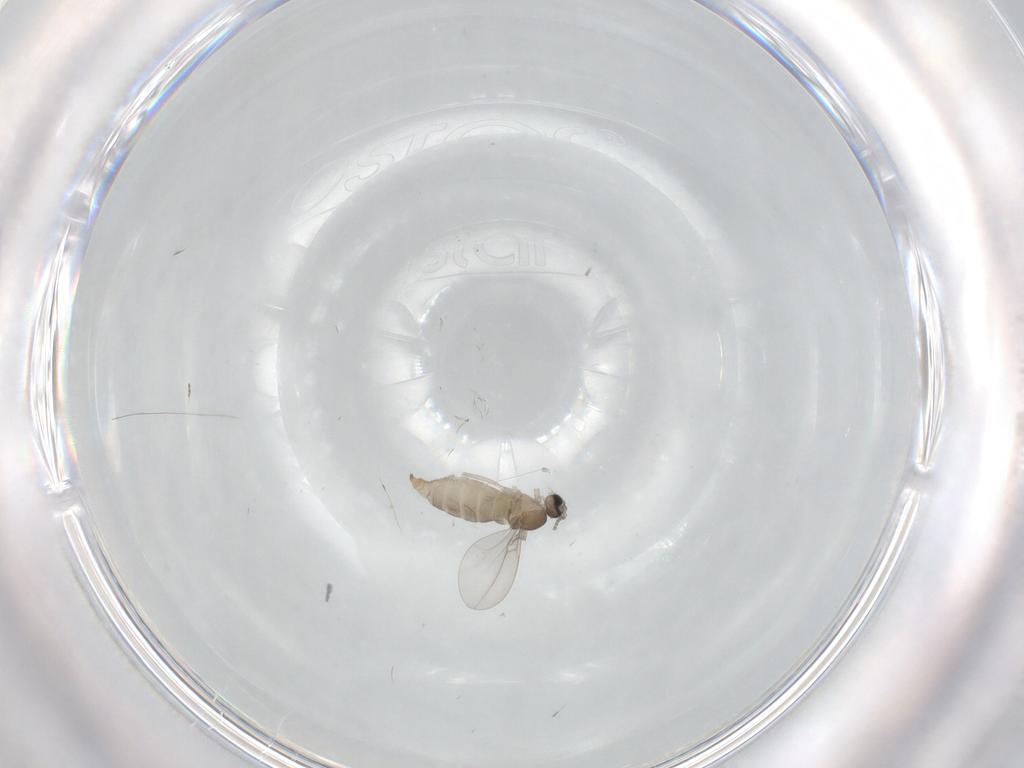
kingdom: Animalia
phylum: Arthropoda
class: Insecta
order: Diptera
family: Cecidomyiidae
